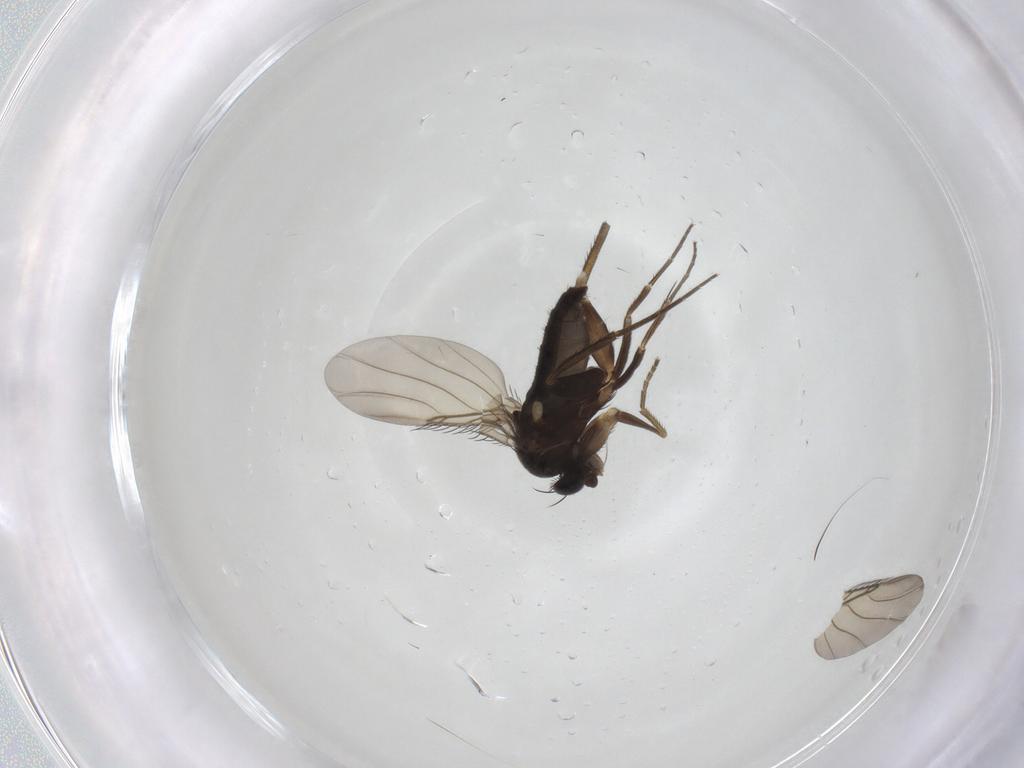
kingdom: Animalia
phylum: Arthropoda
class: Insecta
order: Diptera
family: Phoridae
